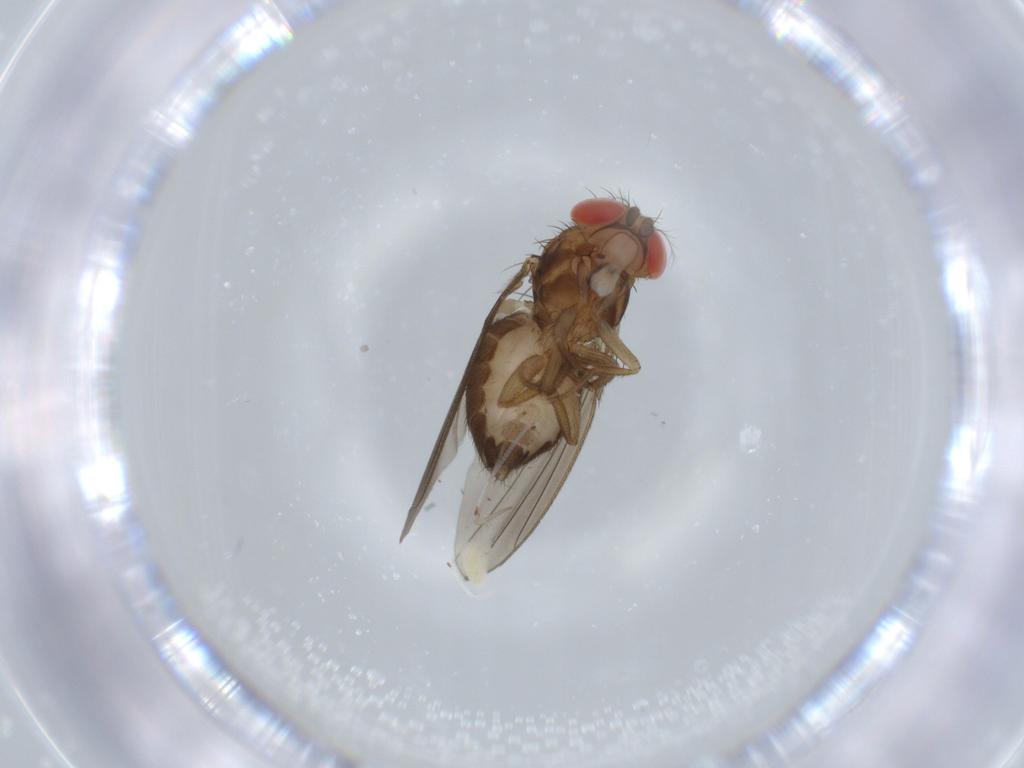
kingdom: Animalia
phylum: Arthropoda
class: Insecta
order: Diptera
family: Drosophilidae
